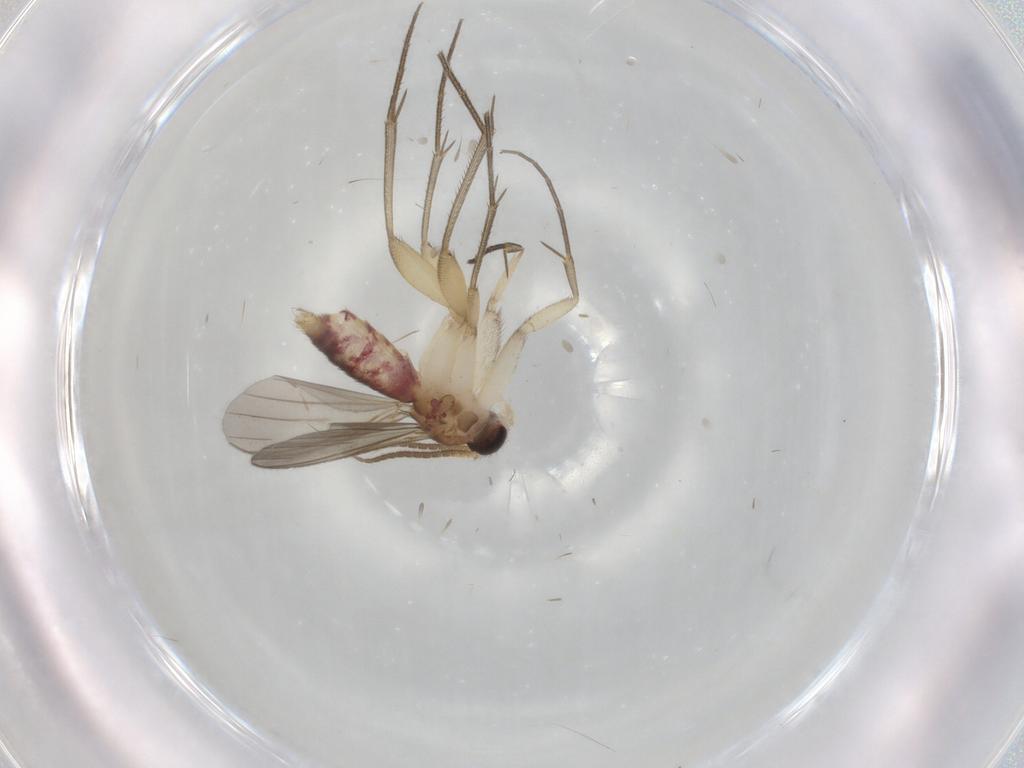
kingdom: Animalia
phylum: Arthropoda
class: Insecta
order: Diptera
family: Mycetophilidae
